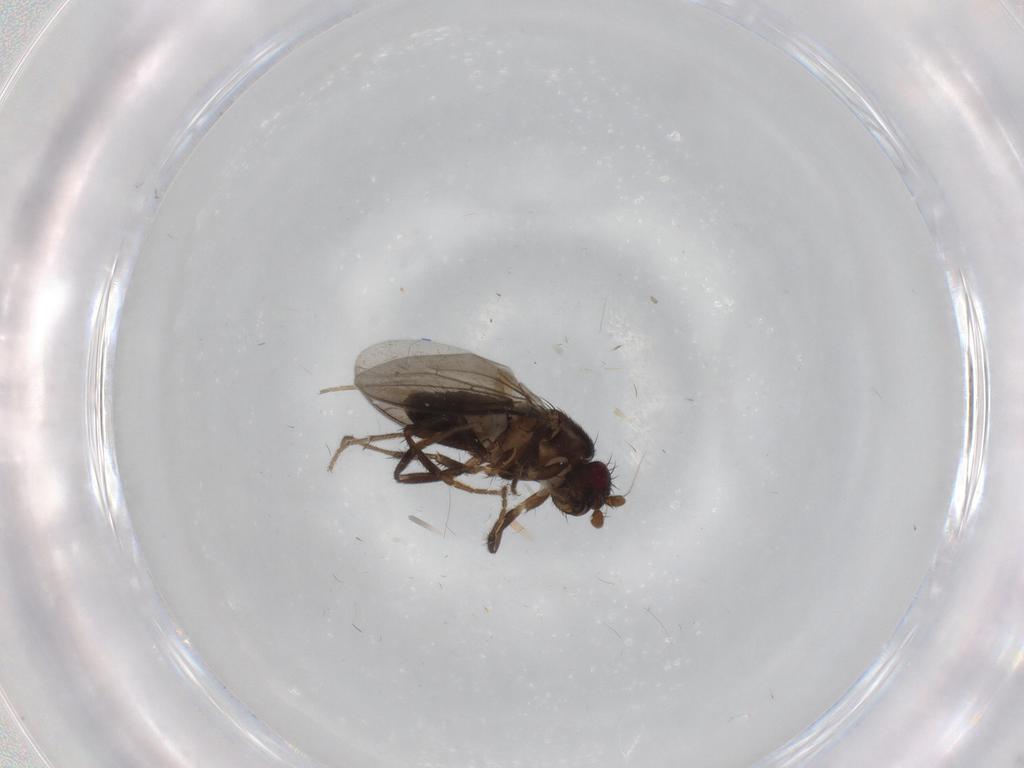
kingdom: Animalia
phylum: Arthropoda
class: Insecta
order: Diptera
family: Sphaeroceridae
